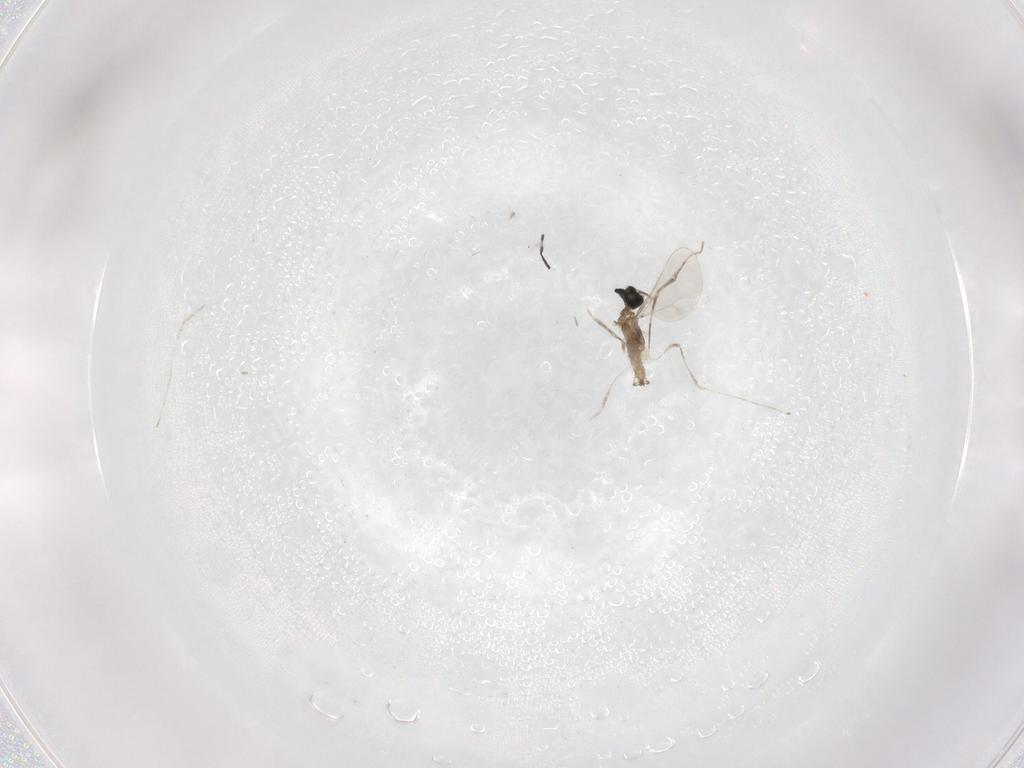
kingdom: Animalia
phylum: Arthropoda
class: Insecta
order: Diptera
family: Cecidomyiidae
